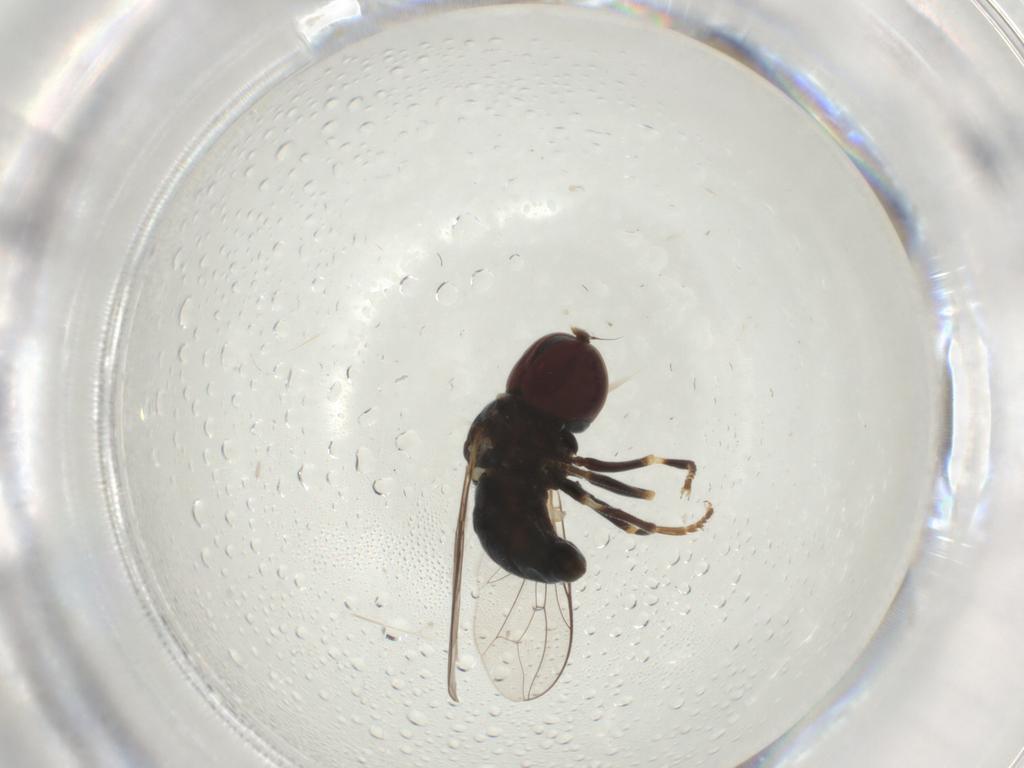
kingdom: Animalia
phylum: Arthropoda
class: Insecta
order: Diptera
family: Pipunculidae
